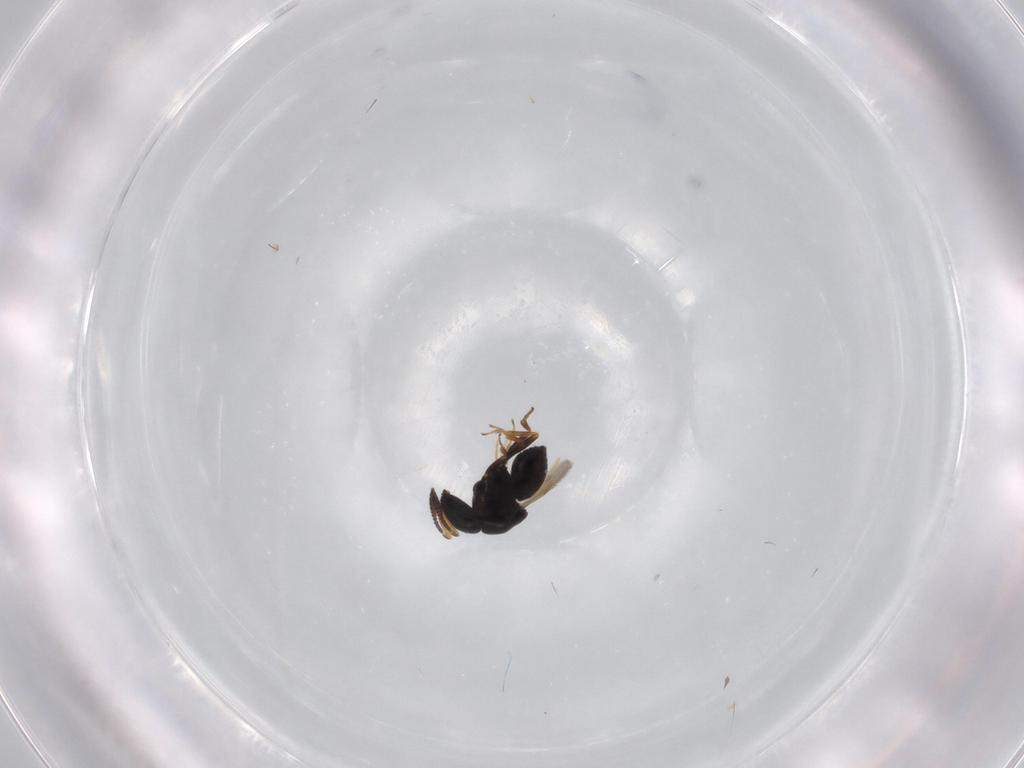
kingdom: Animalia
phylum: Arthropoda
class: Insecta
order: Hymenoptera
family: Scelionidae
